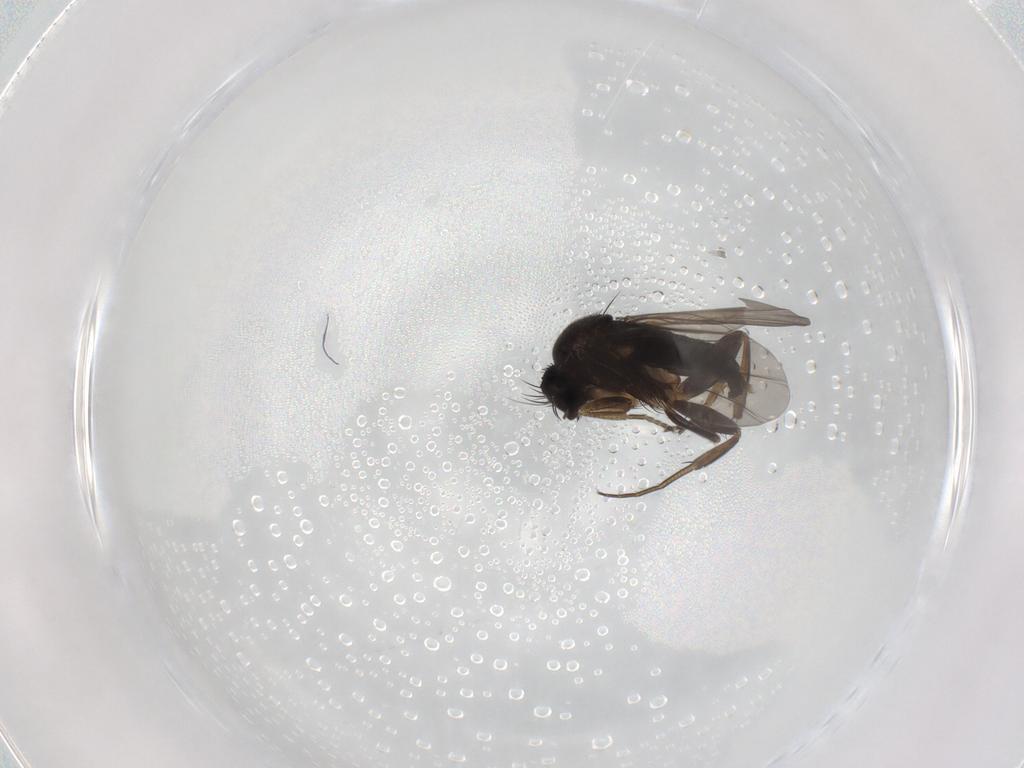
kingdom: Animalia
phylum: Arthropoda
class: Insecta
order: Diptera
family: Phoridae
